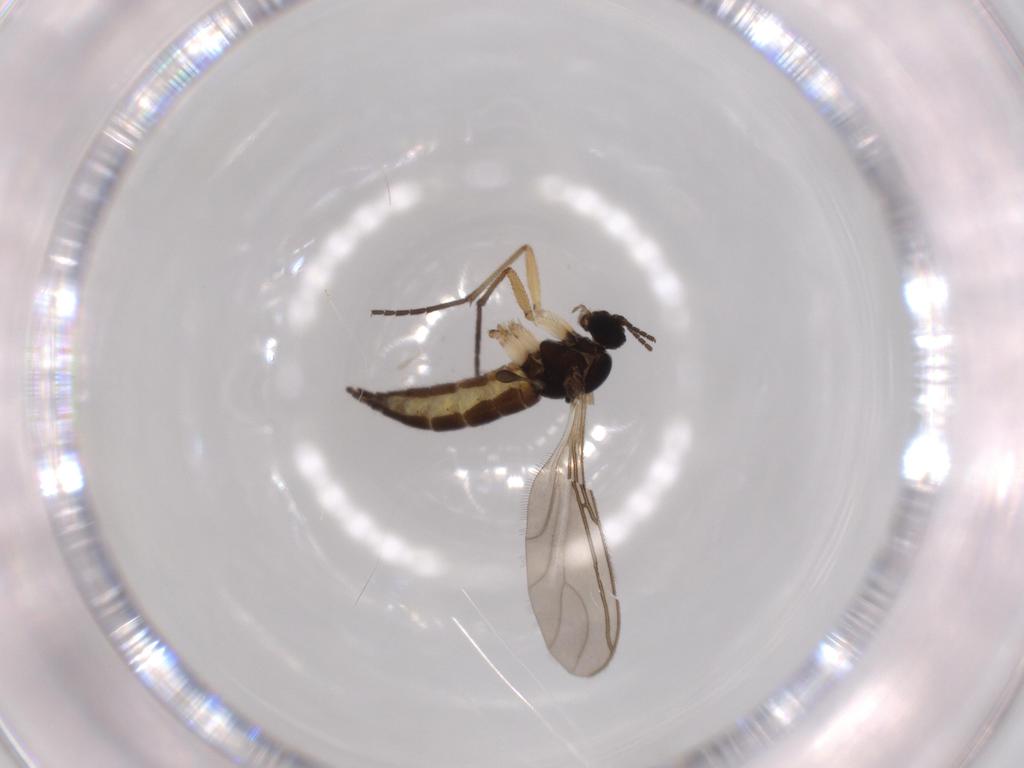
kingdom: Animalia
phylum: Arthropoda
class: Insecta
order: Diptera
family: Sciaridae
